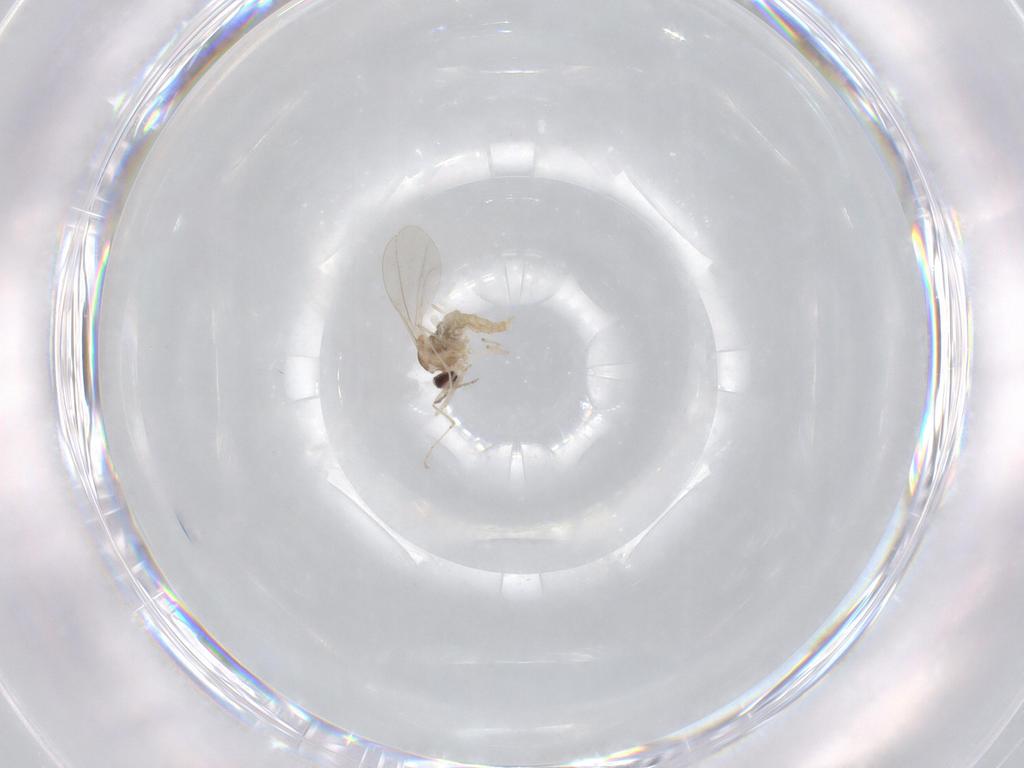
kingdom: Animalia
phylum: Arthropoda
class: Insecta
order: Diptera
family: Cecidomyiidae
